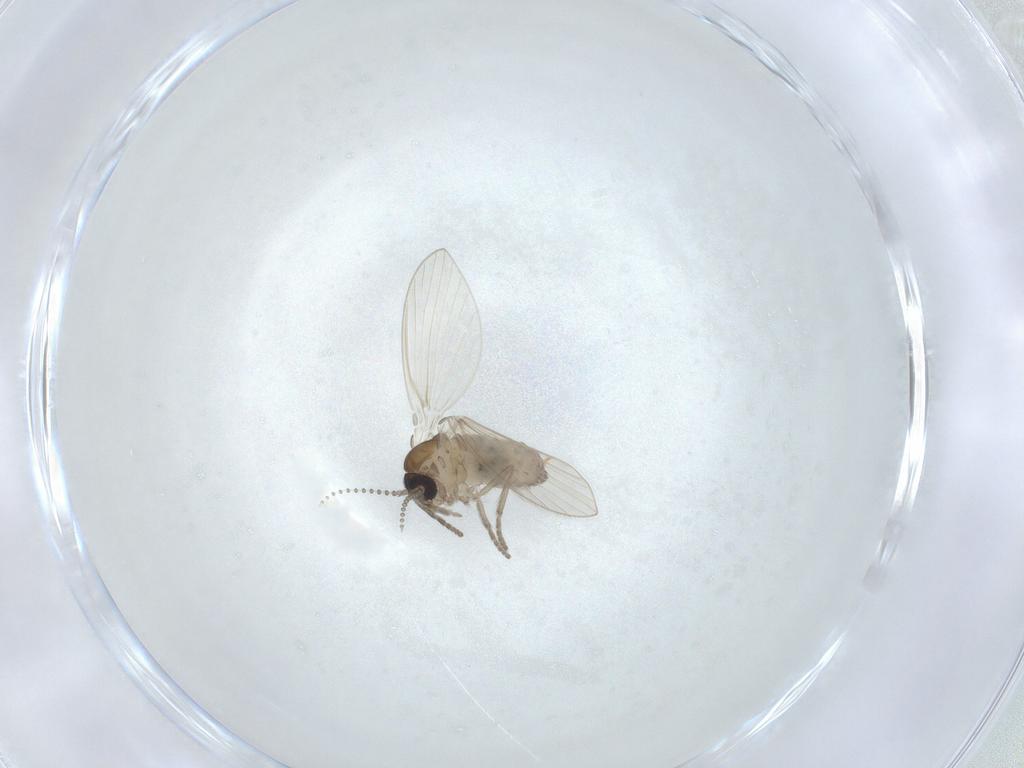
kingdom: Animalia
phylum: Arthropoda
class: Insecta
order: Diptera
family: Psychodidae
